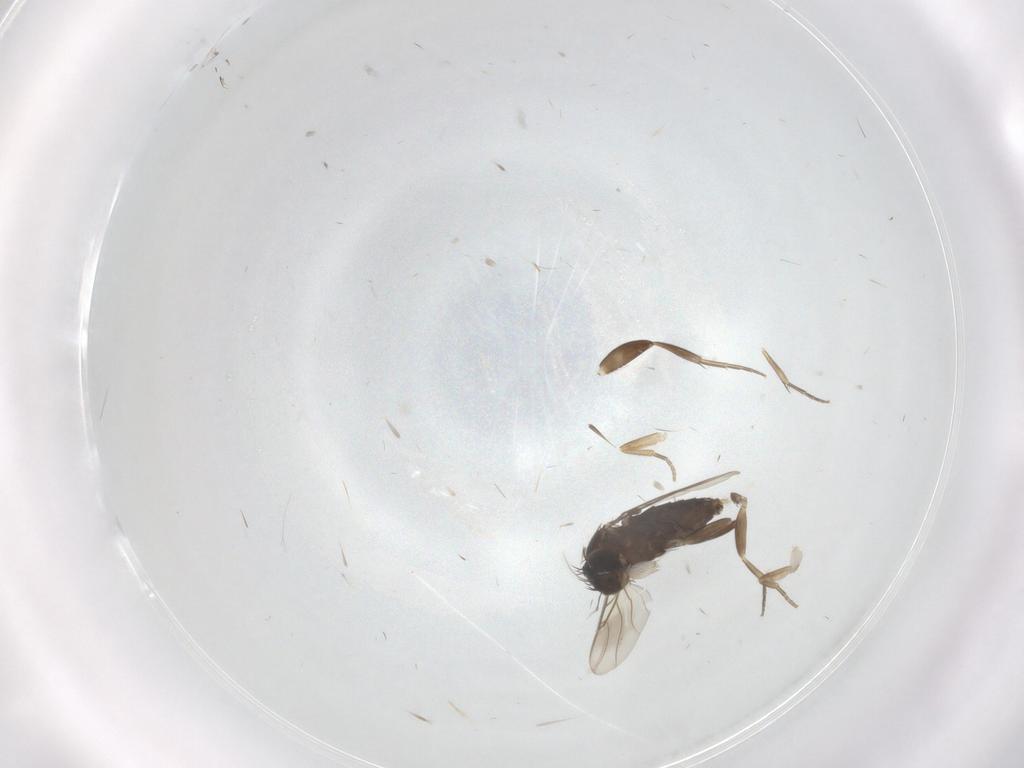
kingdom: Animalia
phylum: Arthropoda
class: Insecta
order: Diptera
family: Phoridae
